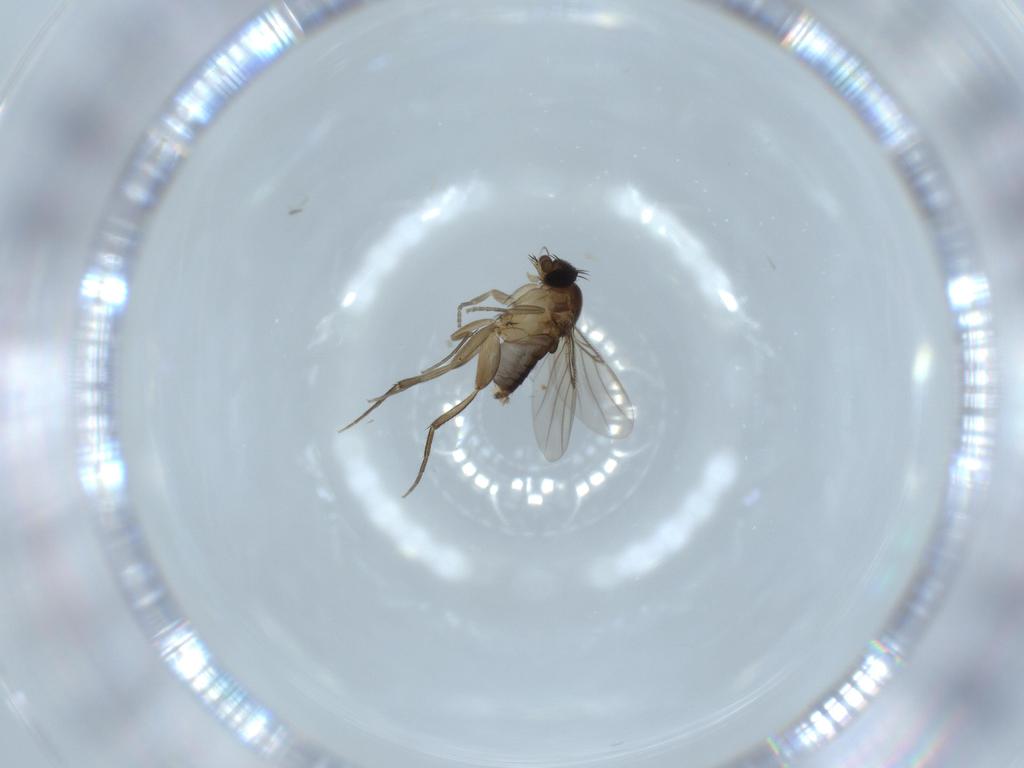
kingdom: Animalia
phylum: Arthropoda
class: Insecta
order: Diptera
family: Phoridae
